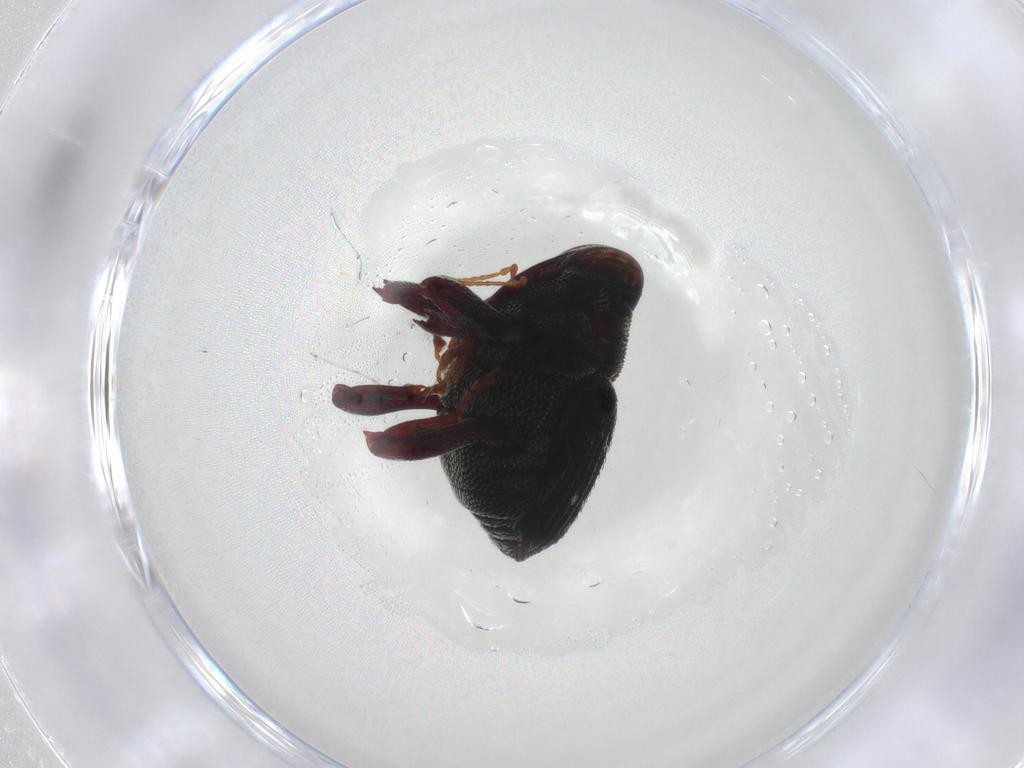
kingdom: Animalia
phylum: Arthropoda
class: Insecta
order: Coleoptera
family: Curculionidae
